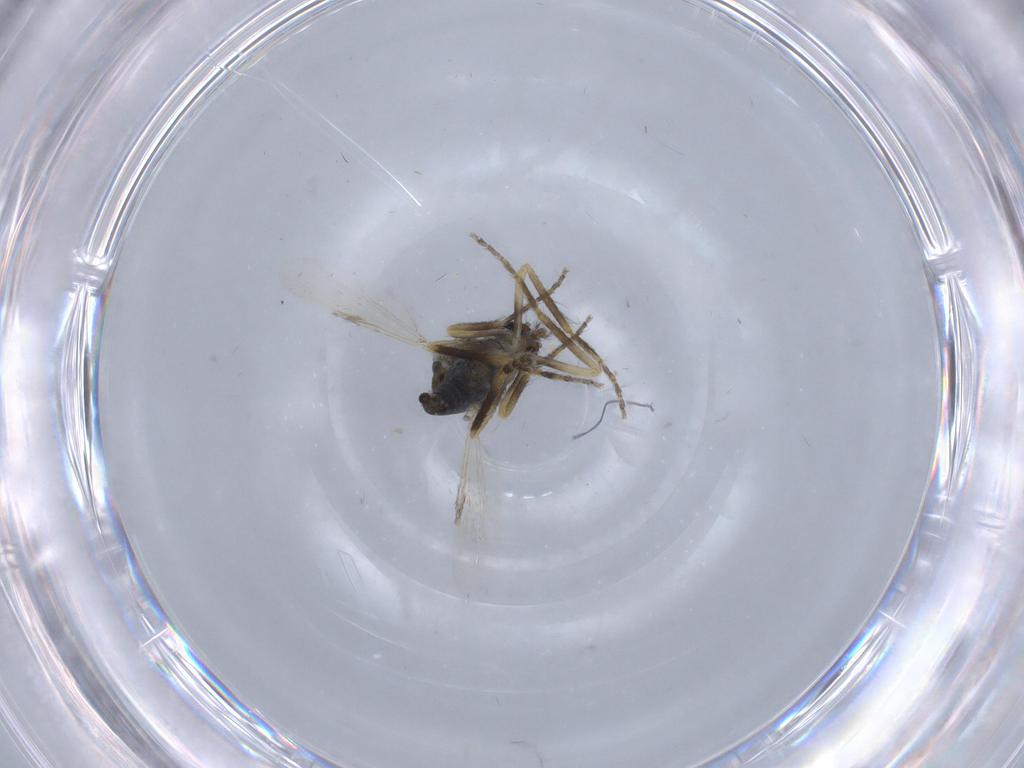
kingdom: Animalia
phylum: Arthropoda
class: Insecta
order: Diptera
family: Ceratopogonidae
